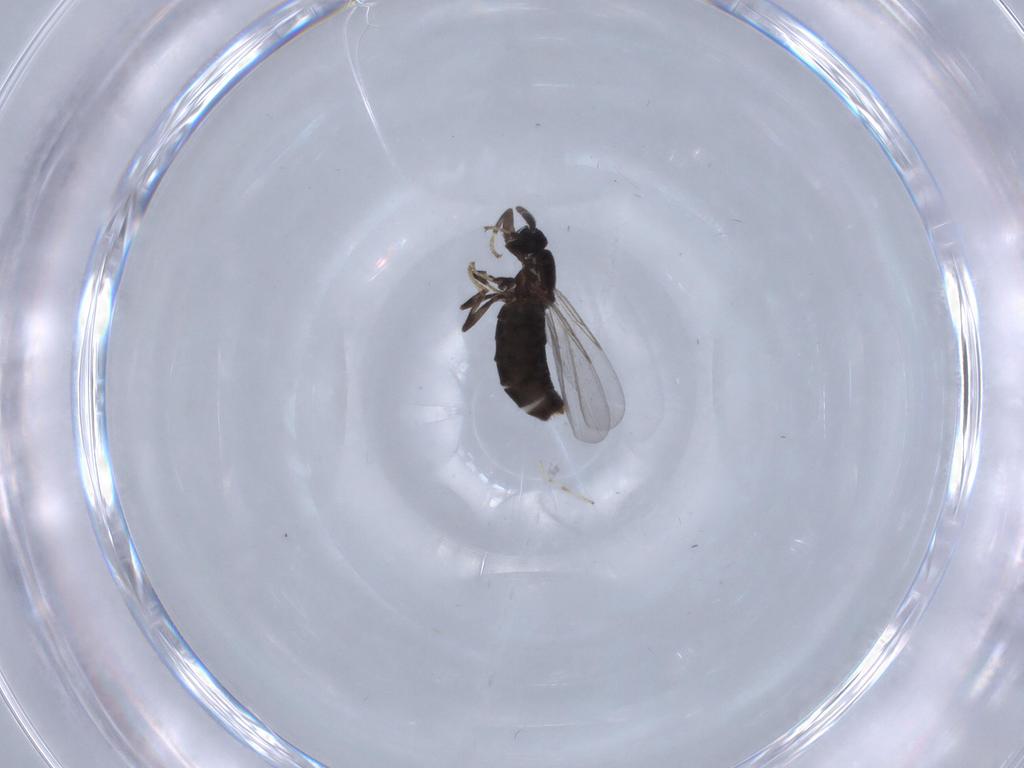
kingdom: Animalia
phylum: Arthropoda
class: Insecta
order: Diptera
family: Scatopsidae
